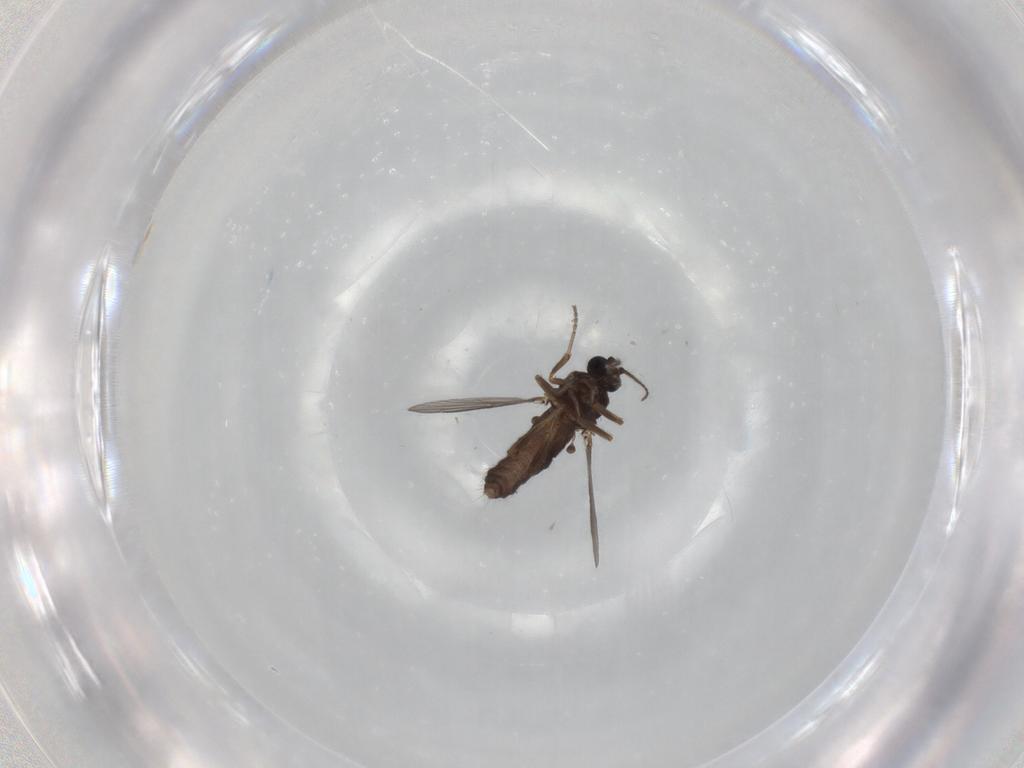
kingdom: Animalia
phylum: Arthropoda
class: Insecta
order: Diptera
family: Ceratopogonidae
